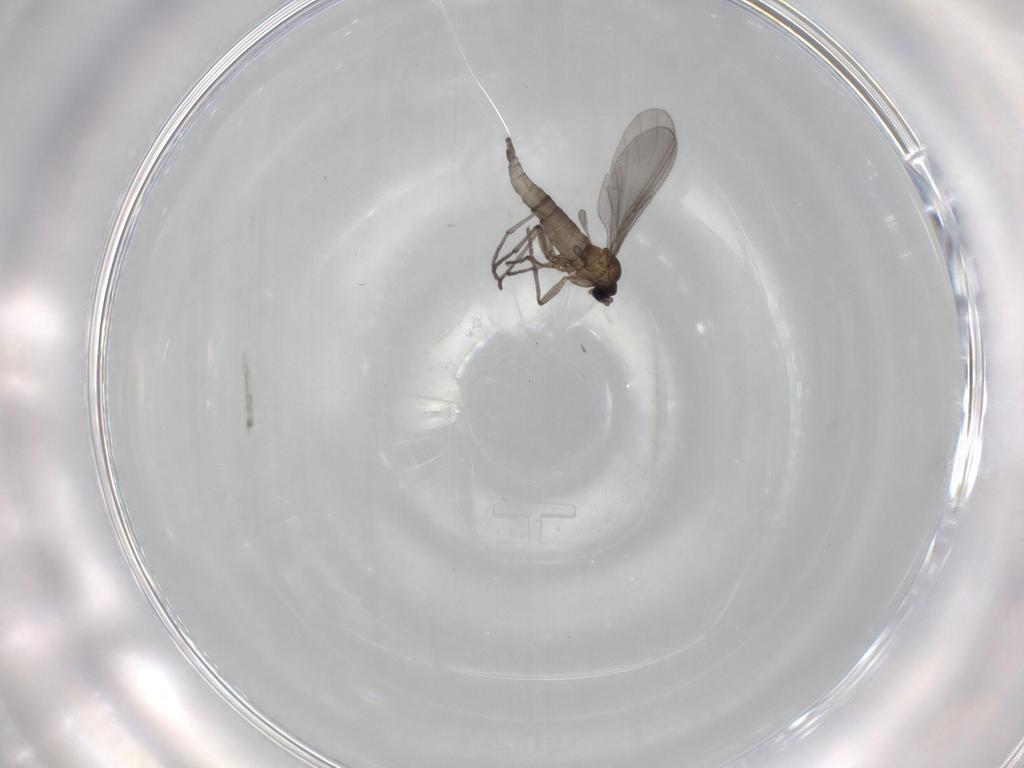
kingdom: Animalia
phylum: Arthropoda
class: Insecta
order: Diptera
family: Sciaridae
